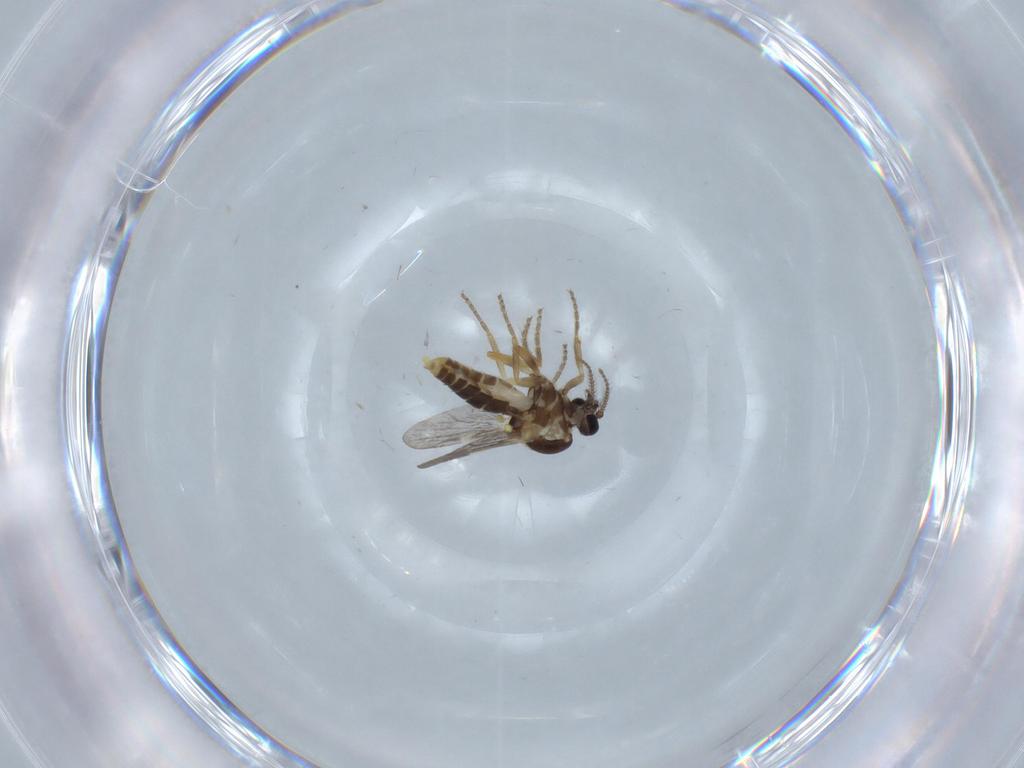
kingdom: Animalia
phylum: Arthropoda
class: Insecta
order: Diptera
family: Ceratopogonidae
